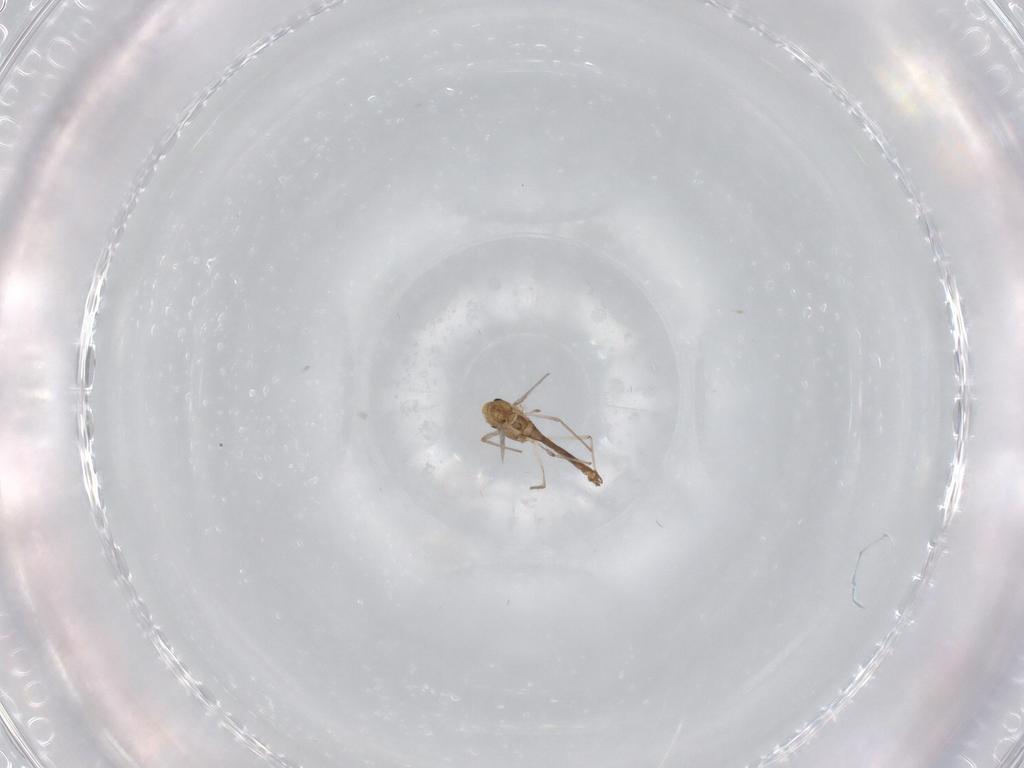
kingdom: Animalia
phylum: Arthropoda
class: Insecta
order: Diptera
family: Chironomidae
